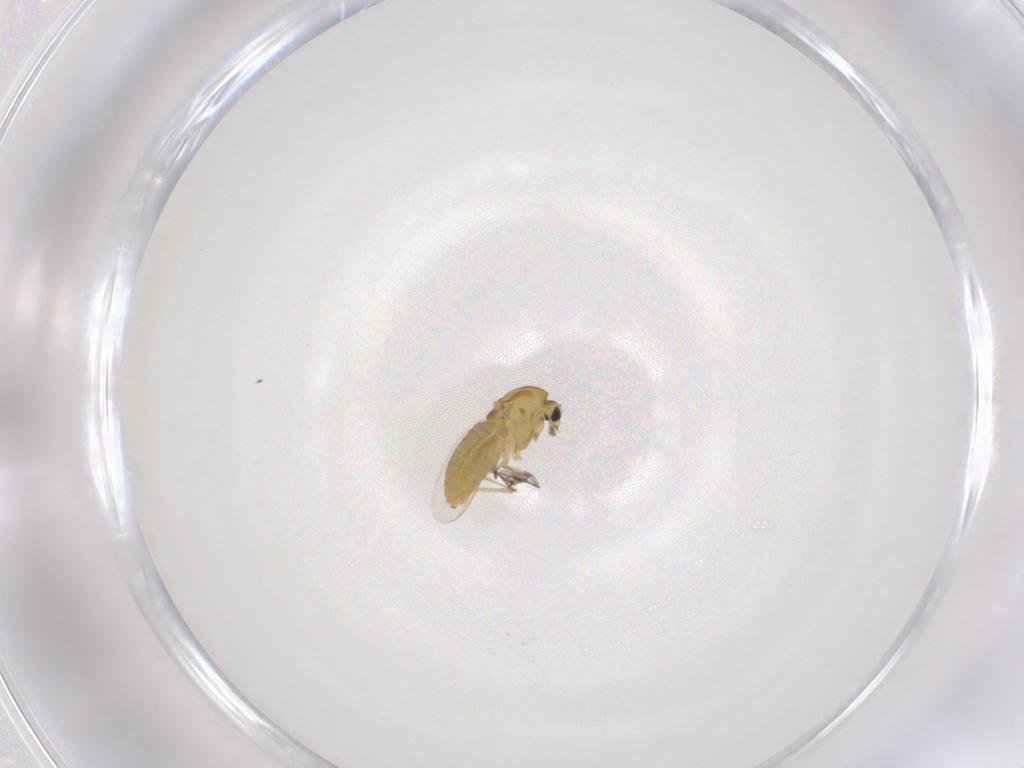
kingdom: Animalia
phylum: Arthropoda
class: Insecta
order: Diptera
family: Chironomidae
